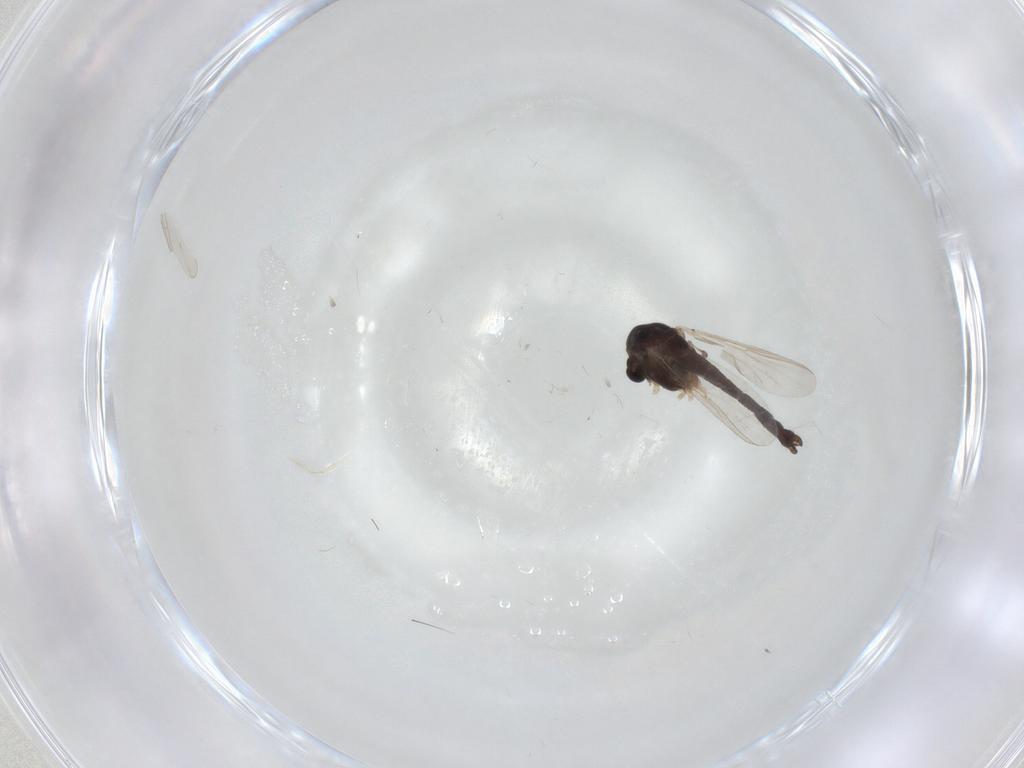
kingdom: Animalia
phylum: Arthropoda
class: Insecta
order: Diptera
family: Chironomidae
